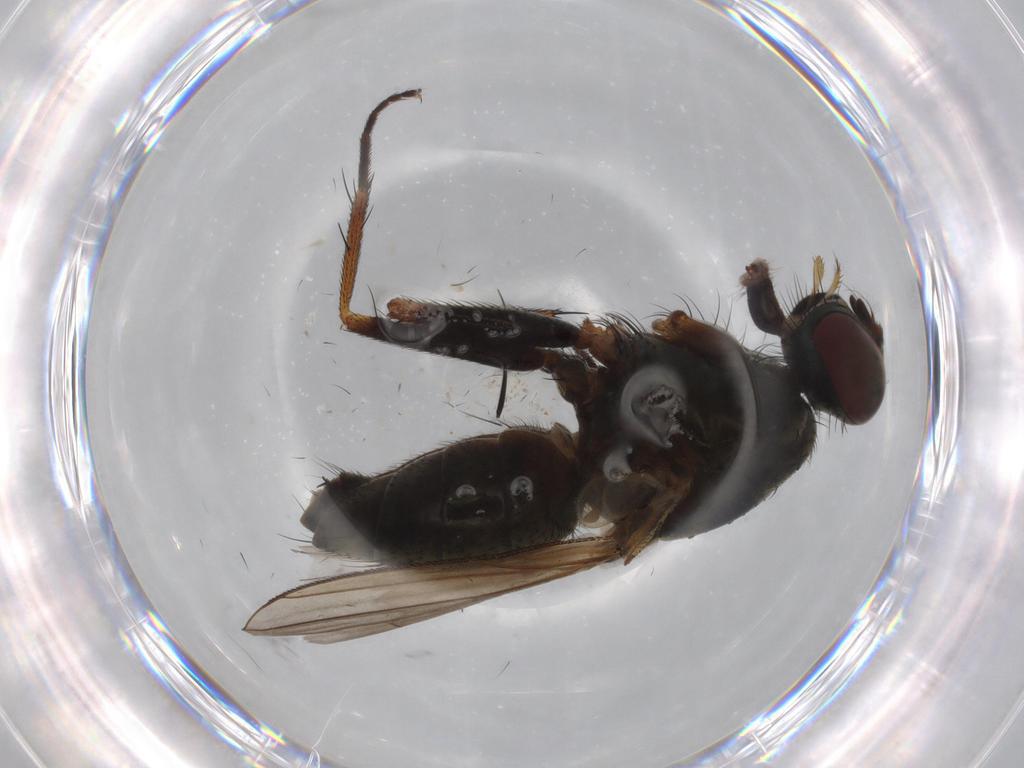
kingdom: Animalia
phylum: Arthropoda
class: Insecta
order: Diptera
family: Muscidae
